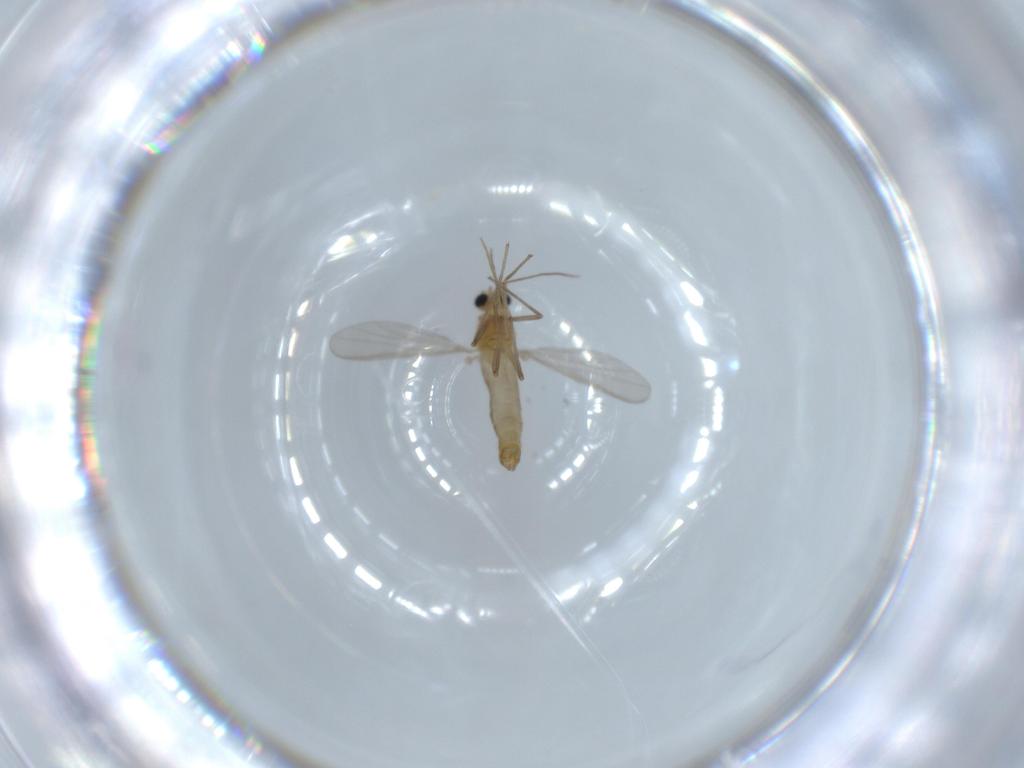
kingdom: Animalia
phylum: Arthropoda
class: Insecta
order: Diptera
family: Chironomidae
